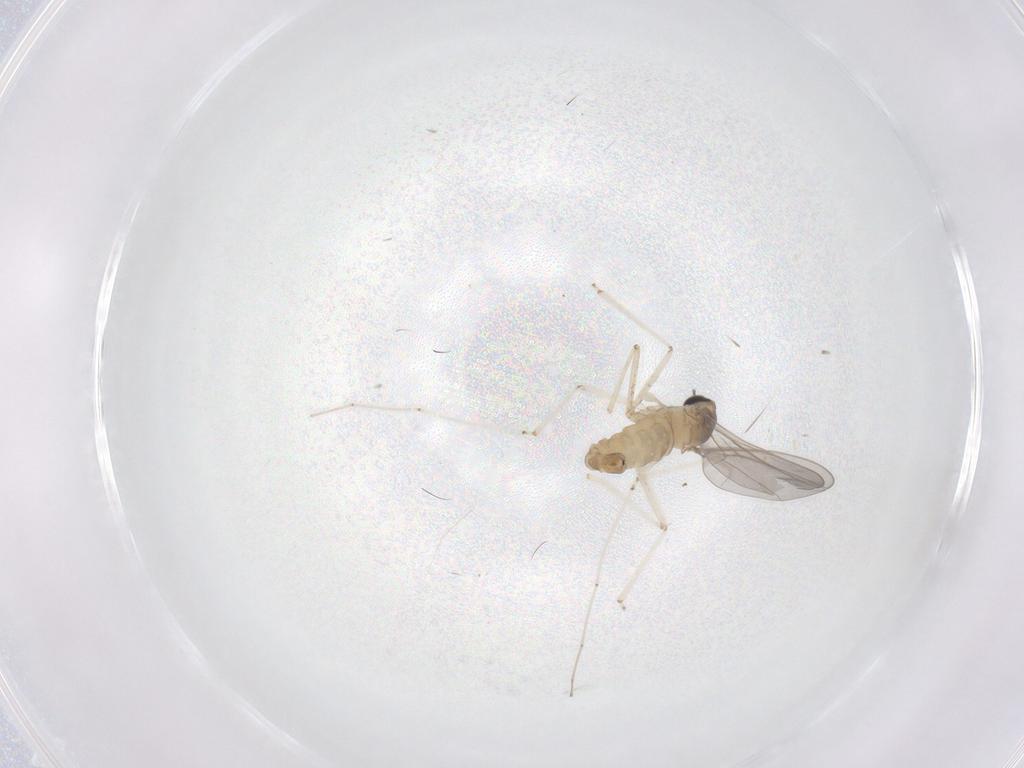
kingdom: Animalia
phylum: Arthropoda
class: Insecta
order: Diptera
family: Cecidomyiidae
